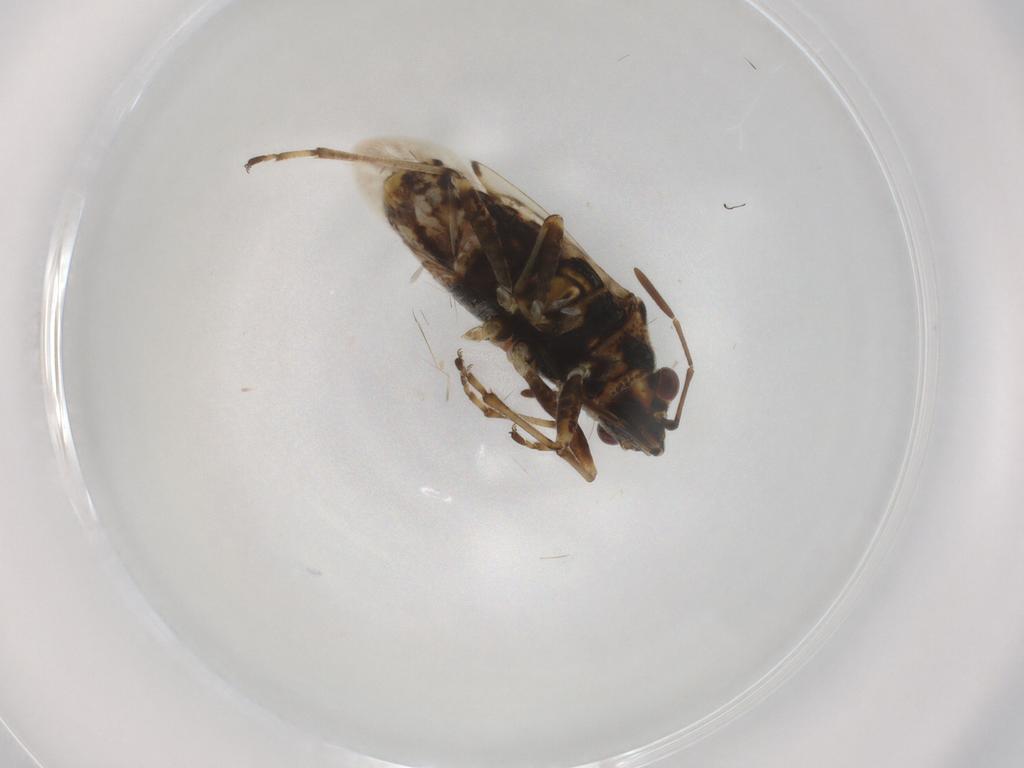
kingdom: Animalia
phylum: Arthropoda
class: Insecta
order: Hemiptera
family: Lygaeidae
